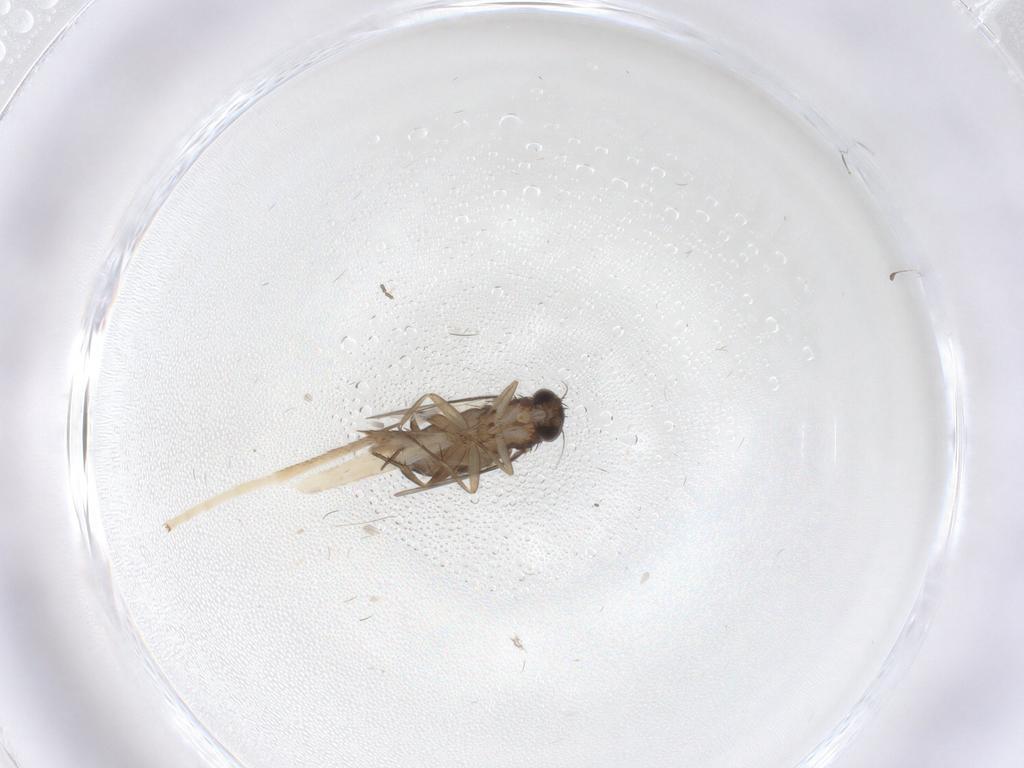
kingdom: Animalia
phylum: Arthropoda
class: Insecta
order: Diptera
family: Phoridae
